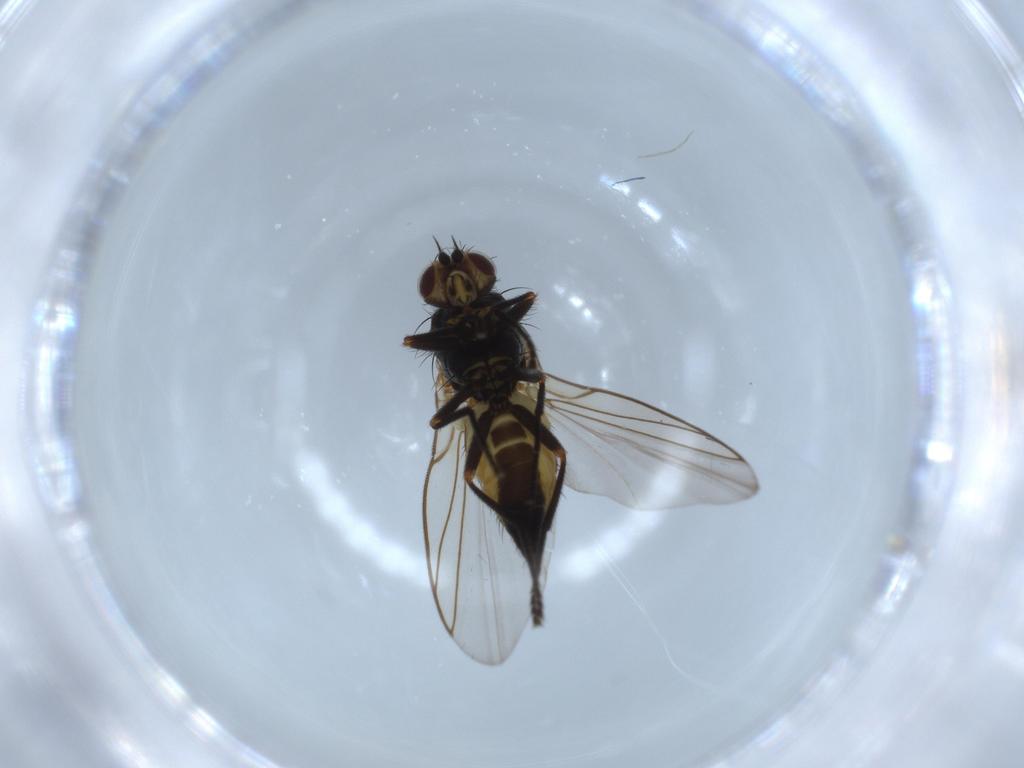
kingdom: Animalia
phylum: Arthropoda
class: Insecta
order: Diptera
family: Agromyzidae
